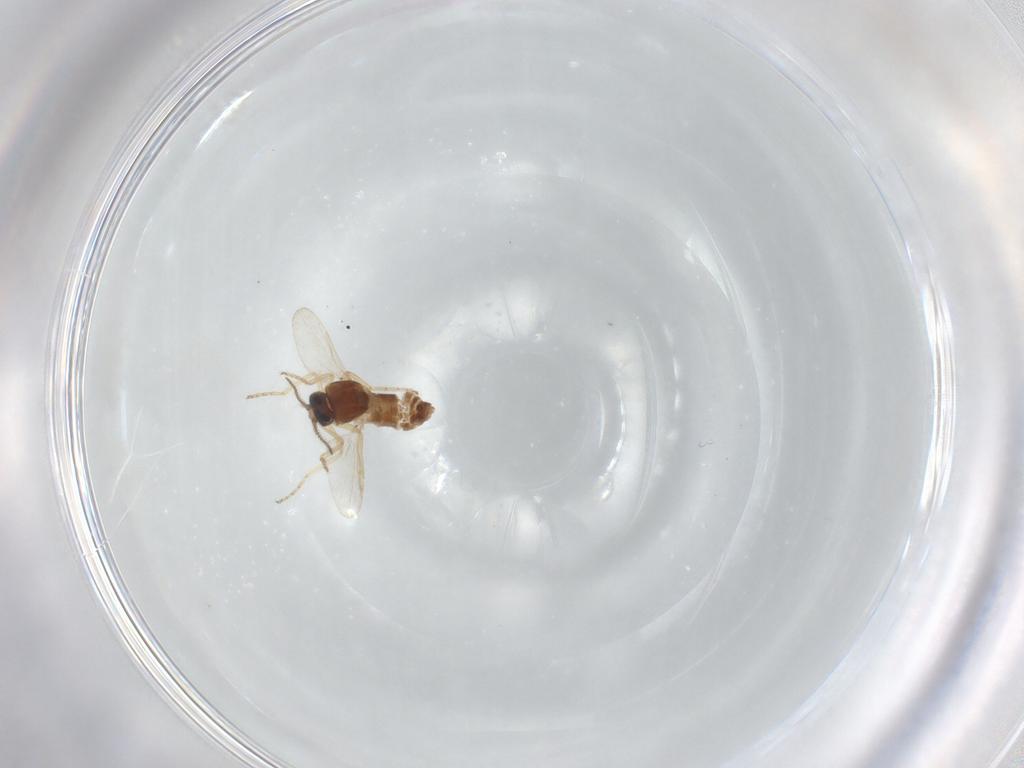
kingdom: Animalia
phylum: Arthropoda
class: Insecta
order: Diptera
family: Ceratopogonidae
